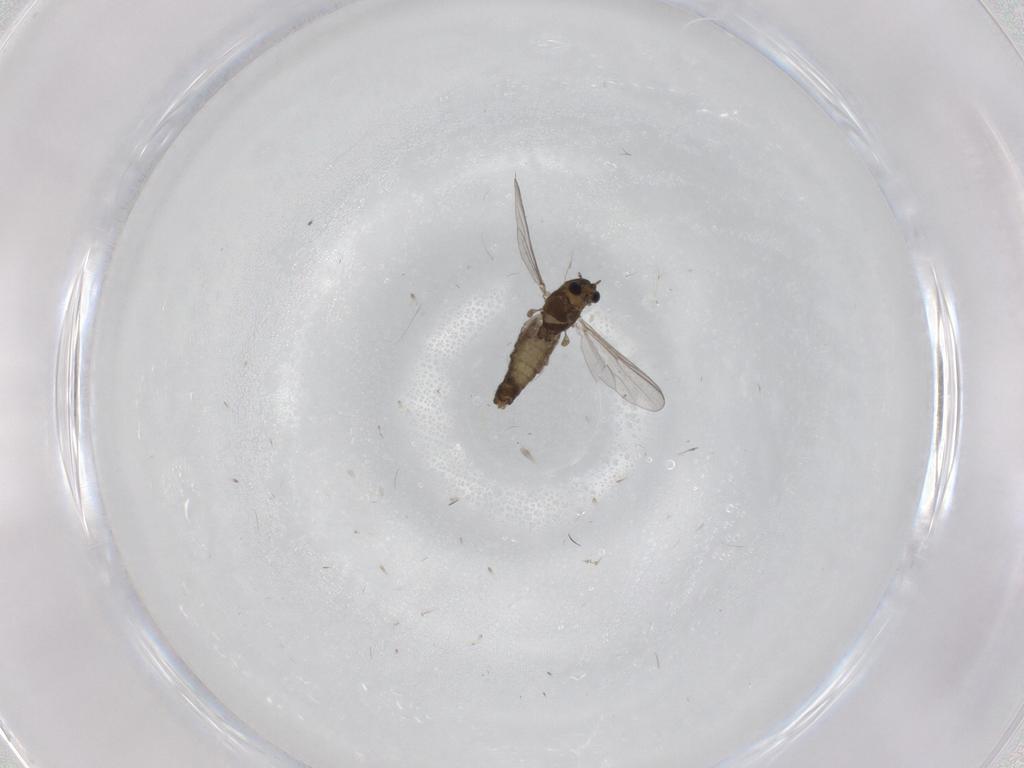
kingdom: Animalia
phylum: Arthropoda
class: Insecta
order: Diptera
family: Chironomidae
